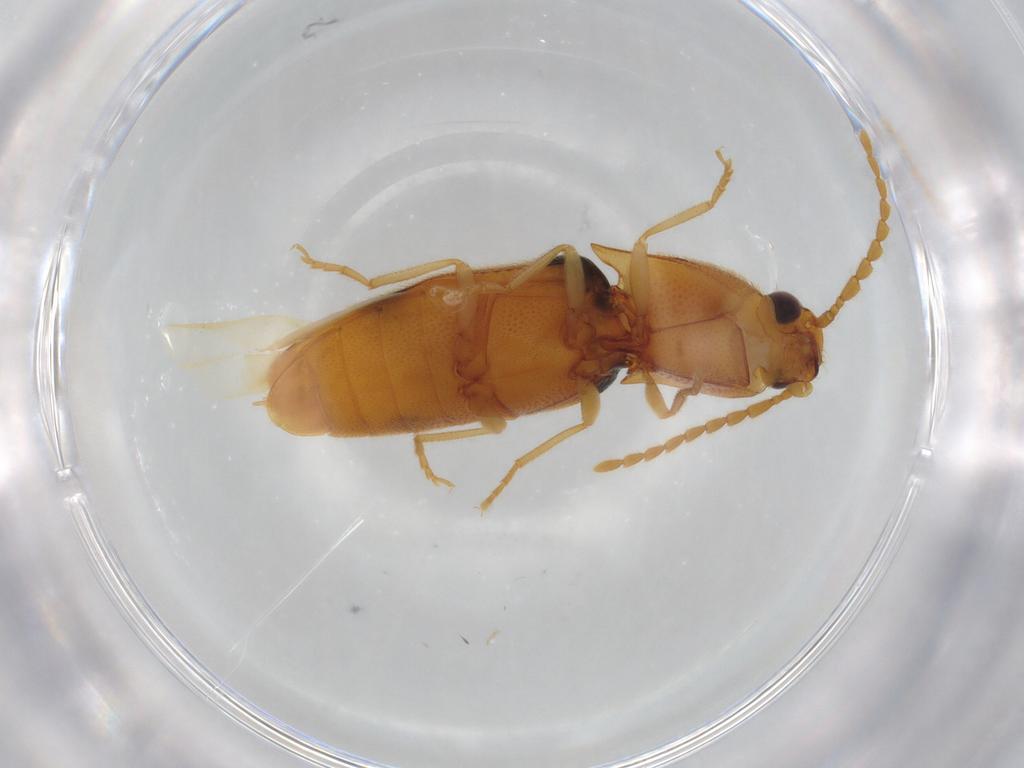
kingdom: Animalia
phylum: Arthropoda
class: Insecta
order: Coleoptera
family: Elateridae
